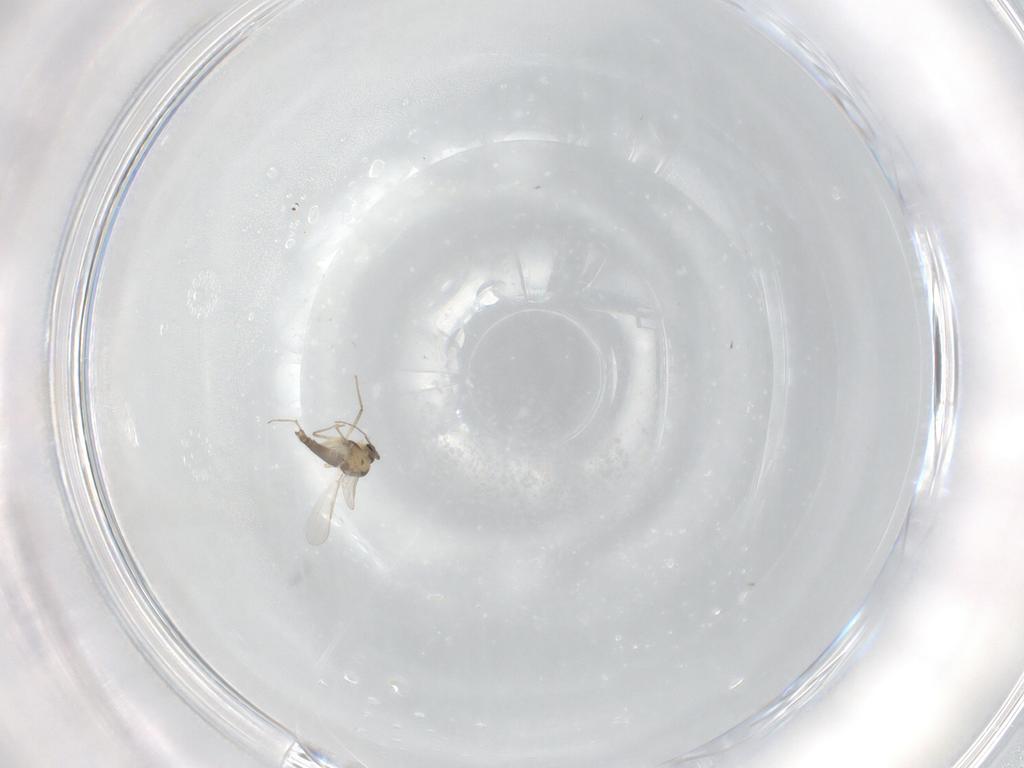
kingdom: Animalia
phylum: Arthropoda
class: Insecta
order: Diptera
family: Chironomidae
